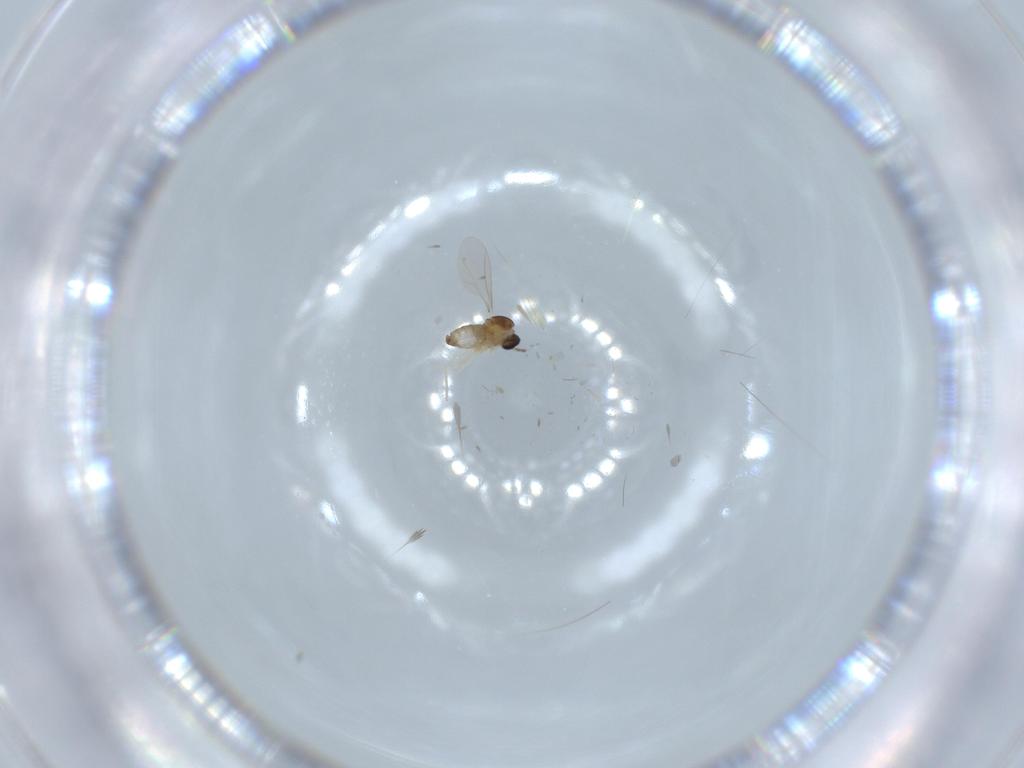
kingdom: Animalia
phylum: Arthropoda
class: Insecta
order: Diptera
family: Cecidomyiidae
